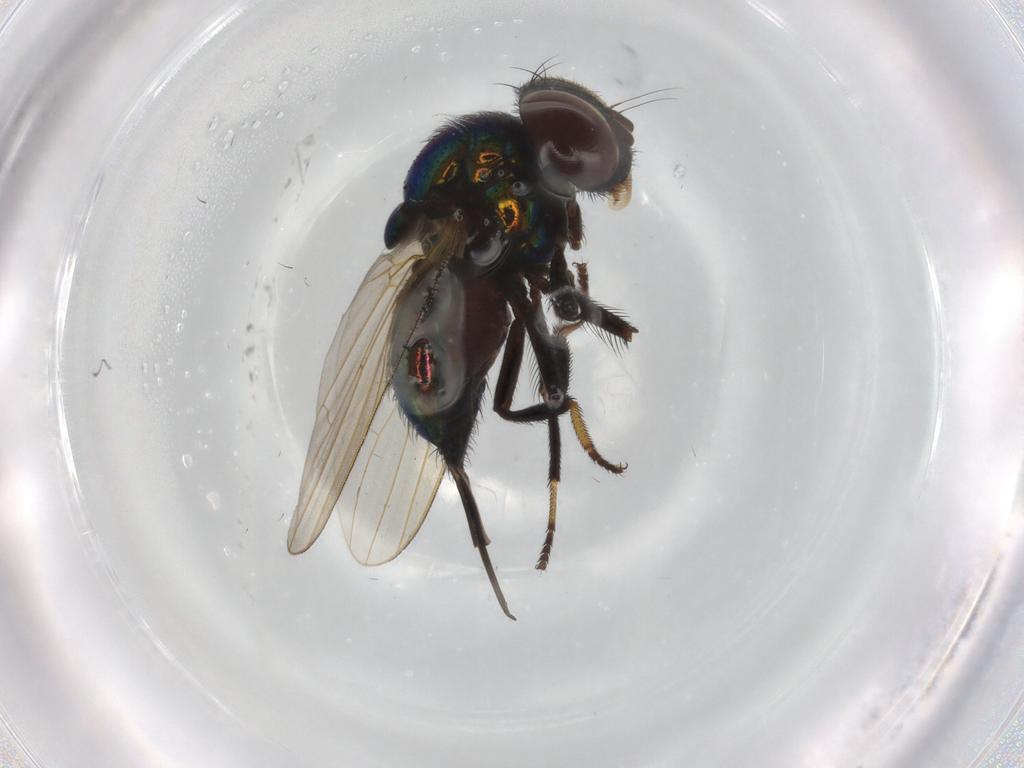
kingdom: Animalia
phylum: Arthropoda
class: Insecta
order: Diptera
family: Lonchaeidae
